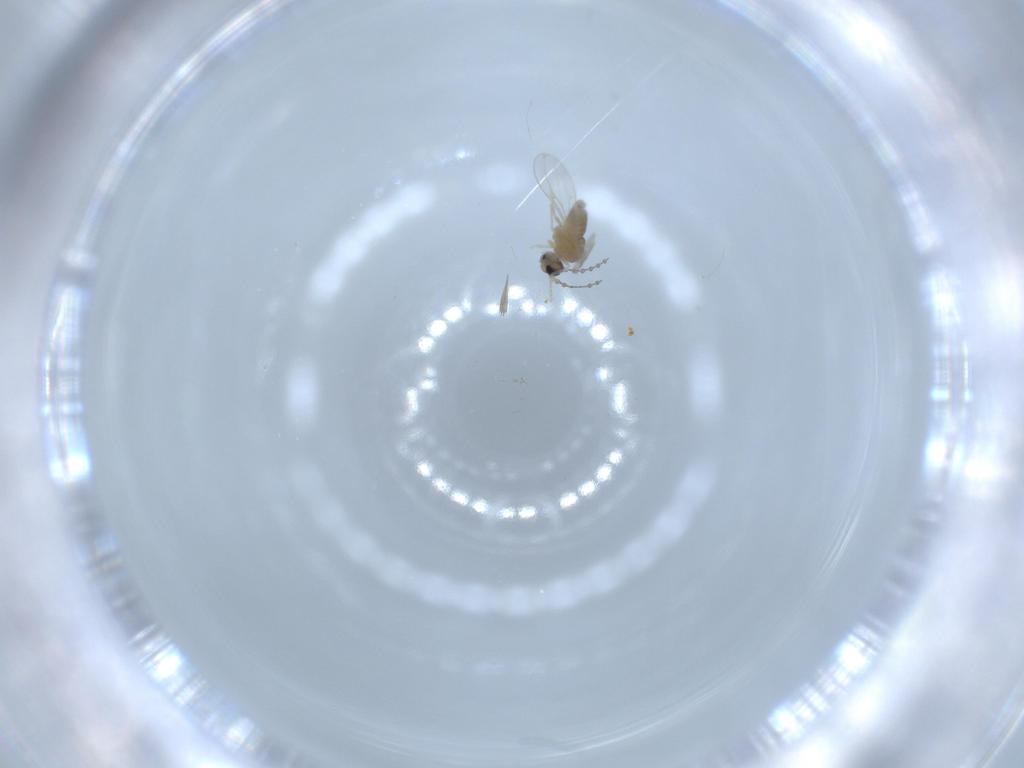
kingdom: Animalia
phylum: Arthropoda
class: Insecta
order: Diptera
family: Cecidomyiidae
